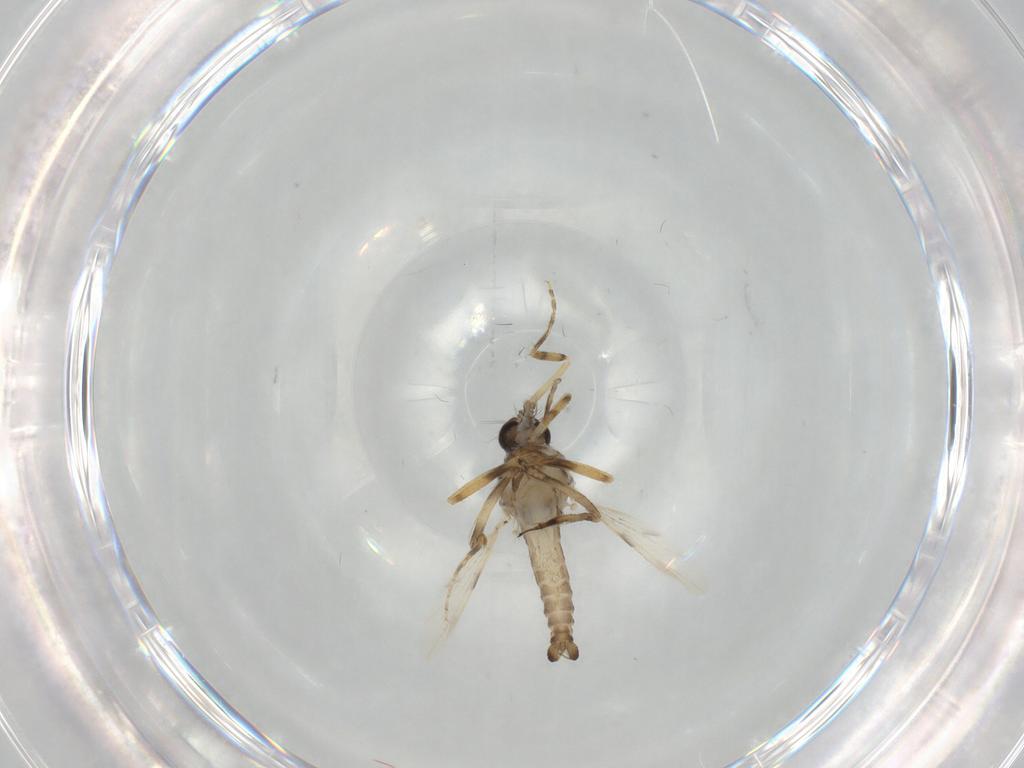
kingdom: Animalia
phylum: Arthropoda
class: Insecta
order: Diptera
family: Ceratopogonidae
